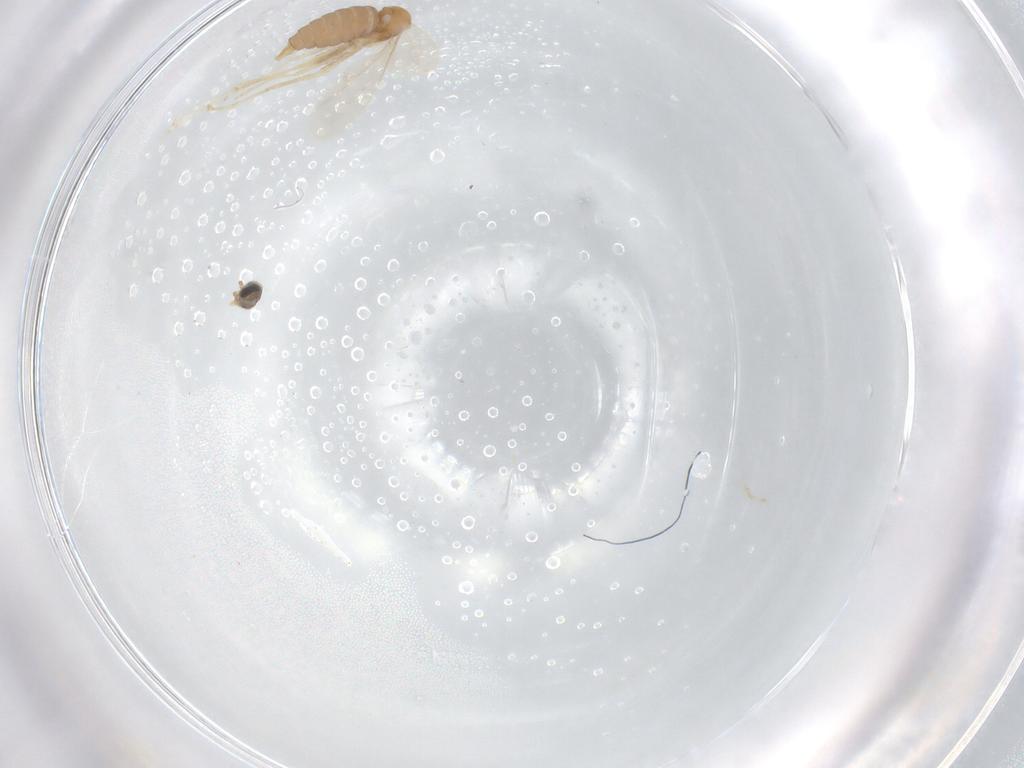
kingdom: Animalia
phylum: Arthropoda
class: Insecta
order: Diptera
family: Cecidomyiidae
